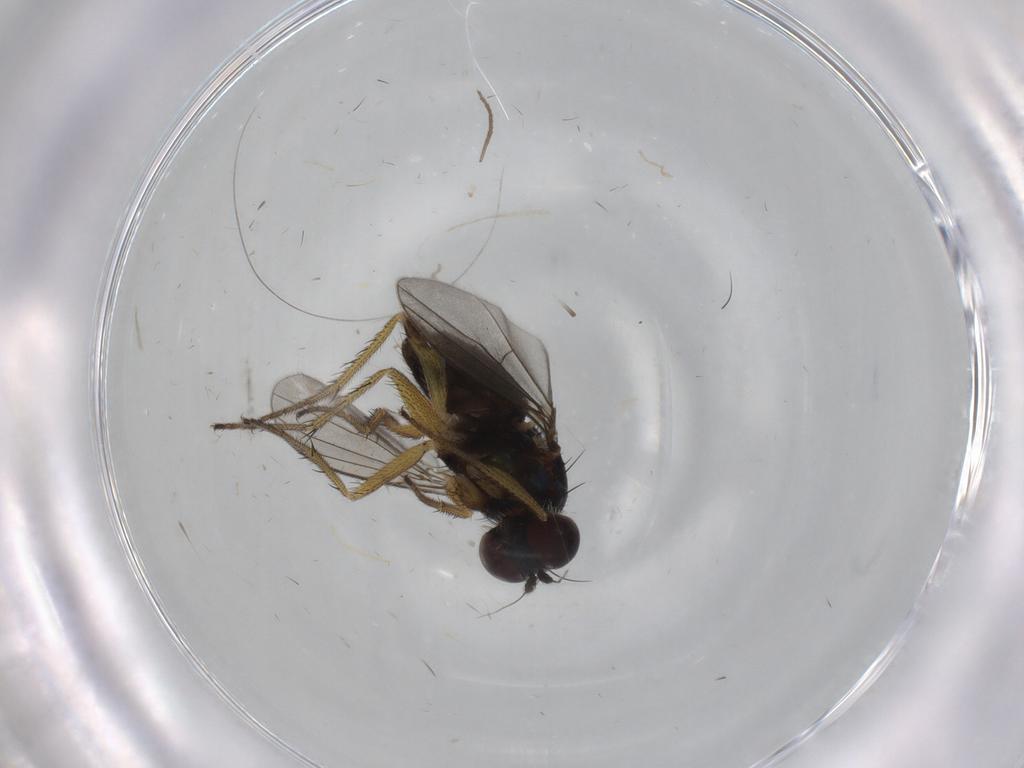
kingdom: Animalia
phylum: Arthropoda
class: Insecta
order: Diptera
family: Dolichopodidae
